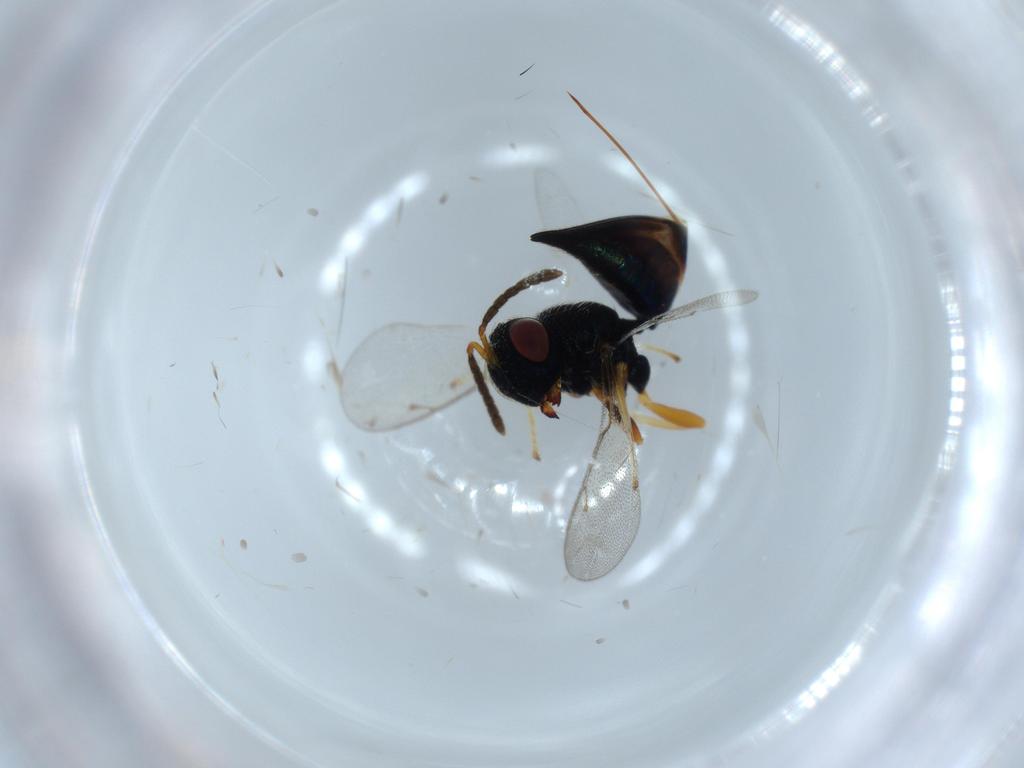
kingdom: Animalia
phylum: Arthropoda
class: Insecta
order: Hymenoptera
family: Pteromalidae
